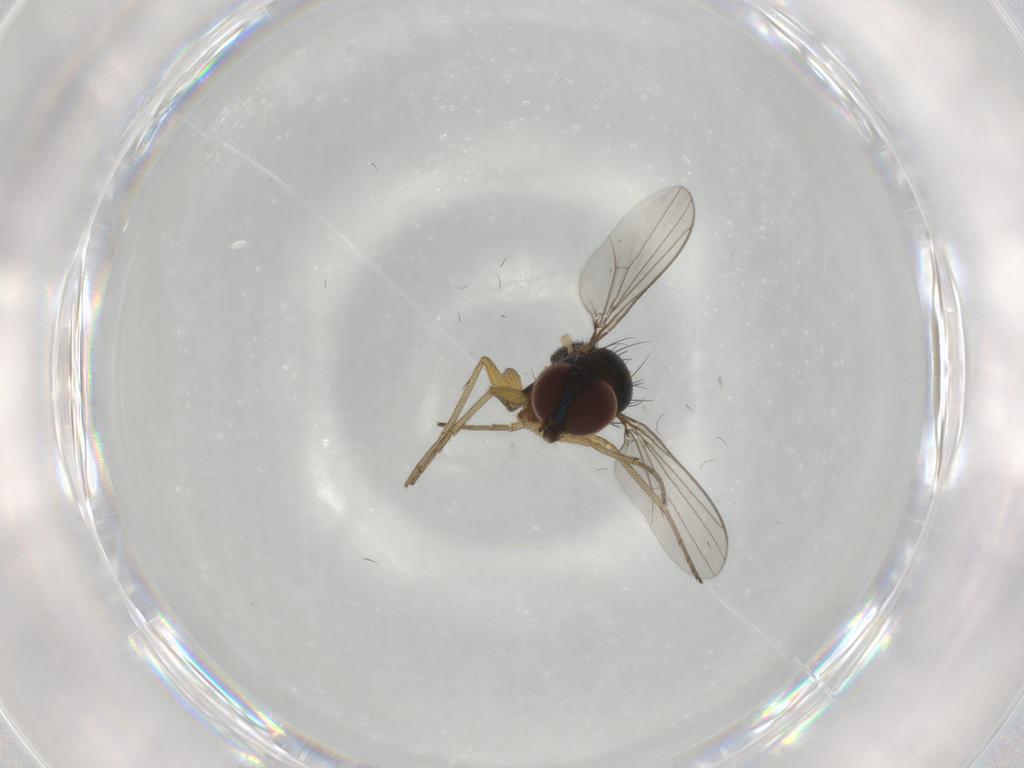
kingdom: Animalia
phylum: Arthropoda
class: Insecta
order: Diptera
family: Dolichopodidae
